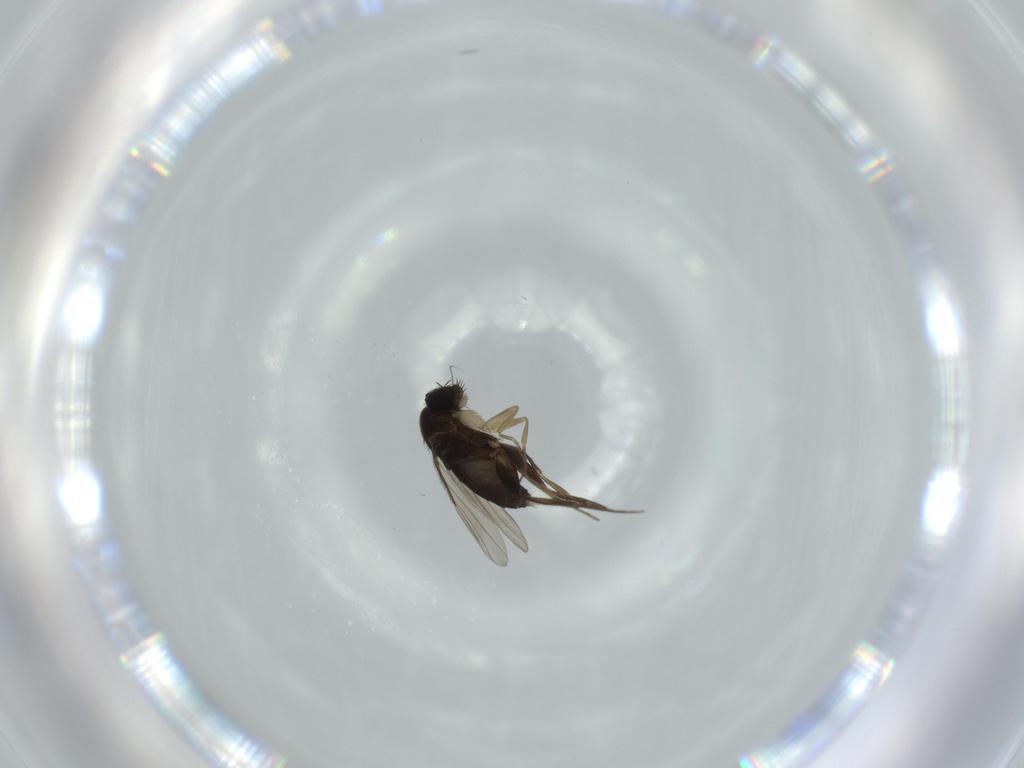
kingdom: Animalia
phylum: Arthropoda
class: Insecta
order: Diptera
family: Phoridae
